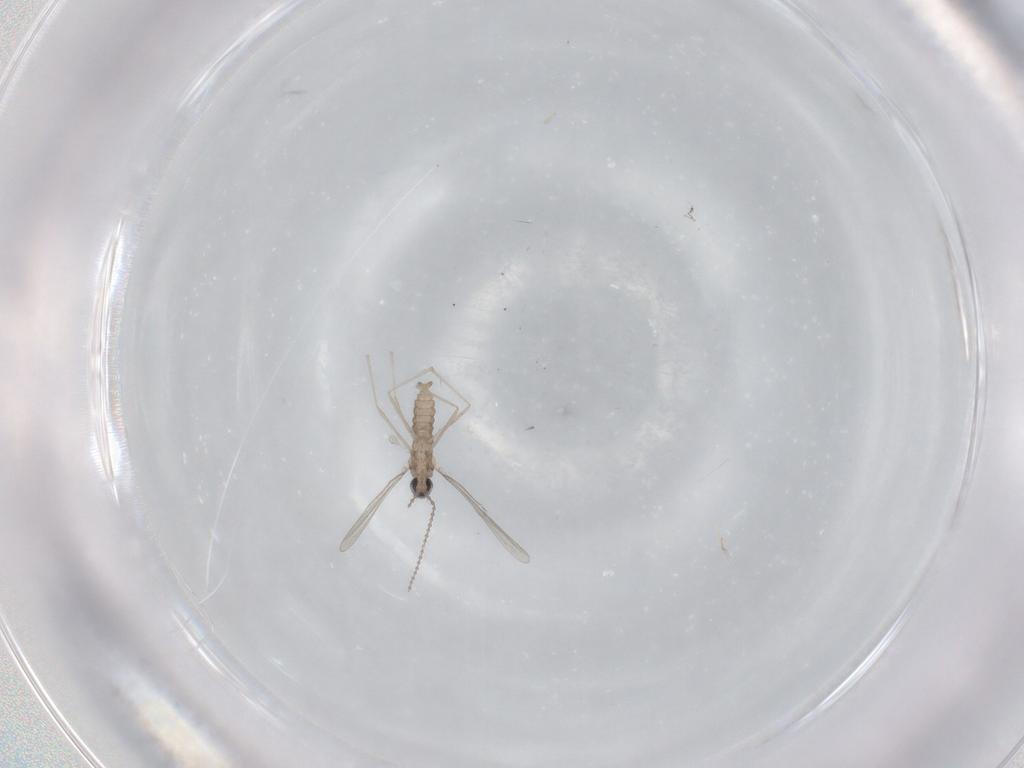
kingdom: Animalia
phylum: Arthropoda
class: Insecta
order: Diptera
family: Cecidomyiidae
